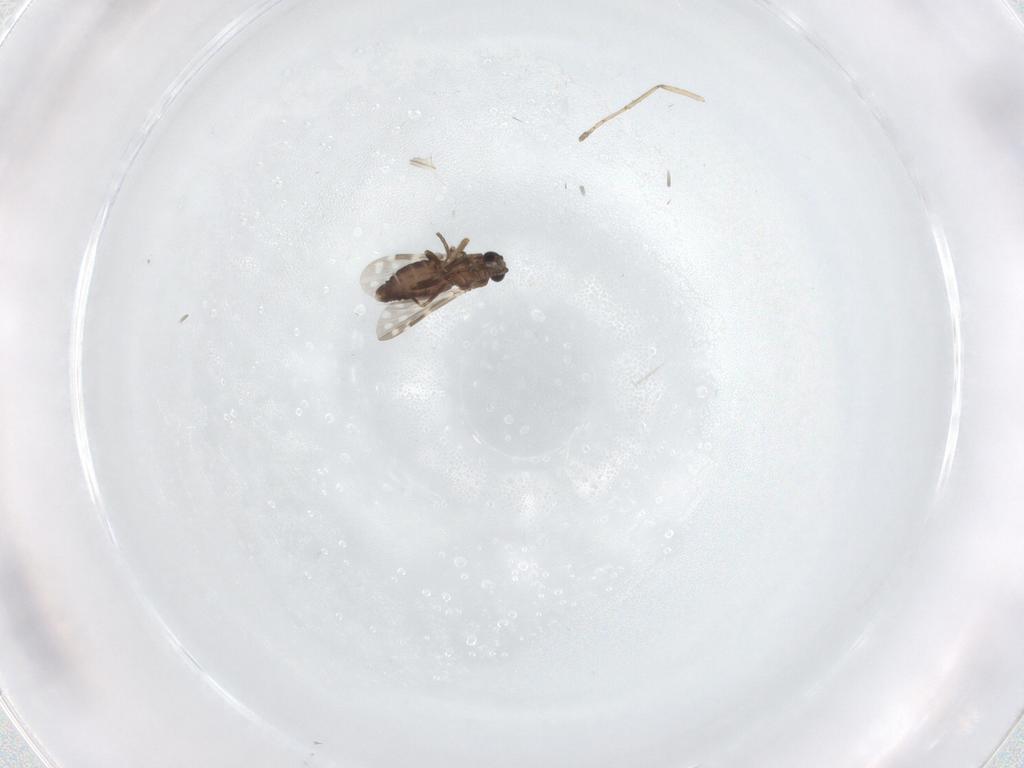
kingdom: Animalia
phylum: Arthropoda
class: Insecta
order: Diptera
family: Ceratopogonidae
